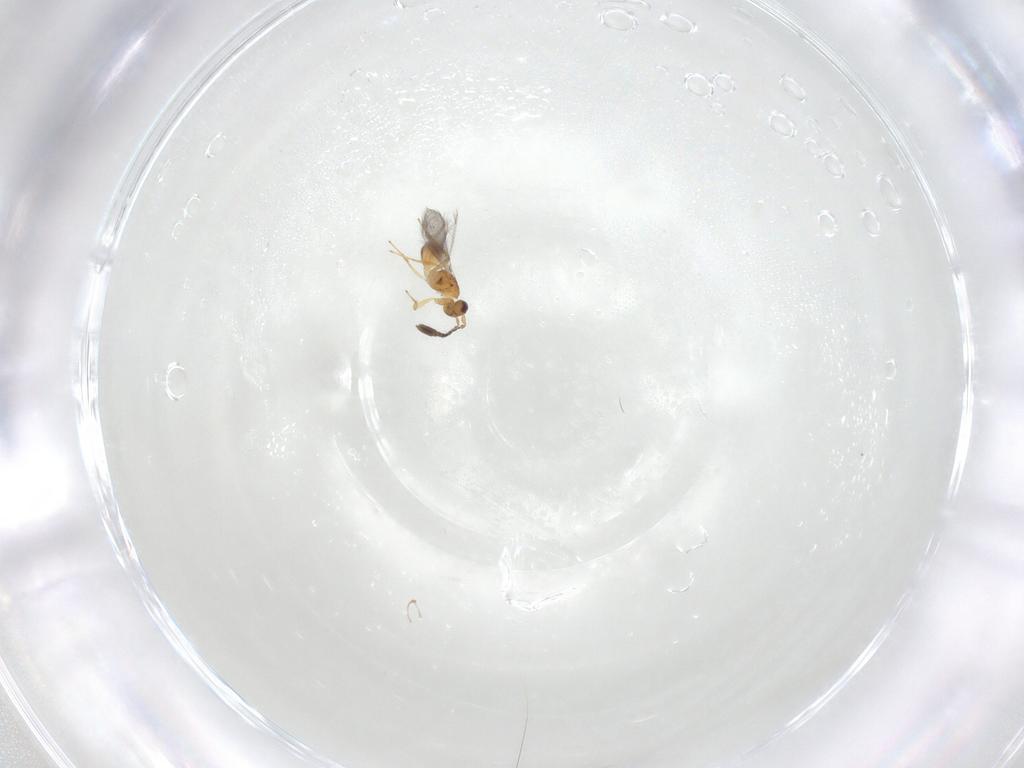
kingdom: Animalia
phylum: Arthropoda
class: Insecta
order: Hymenoptera
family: Mymaridae
